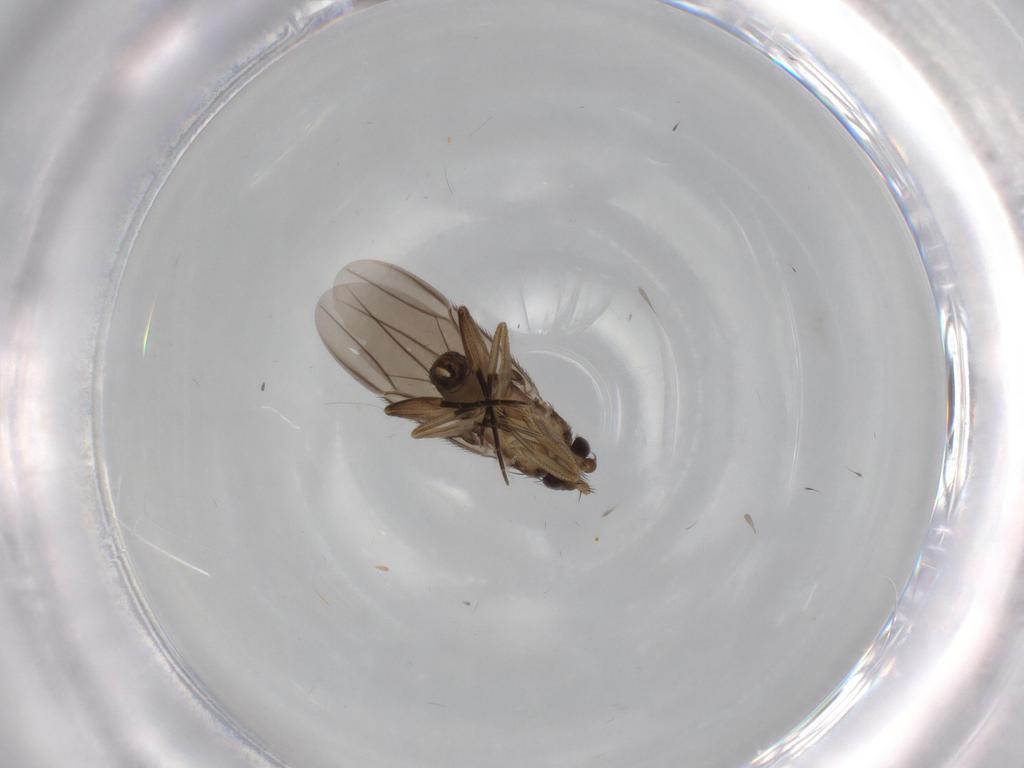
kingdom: Animalia
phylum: Arthropoda
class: Insecta
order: Diptera
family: Phoridae
